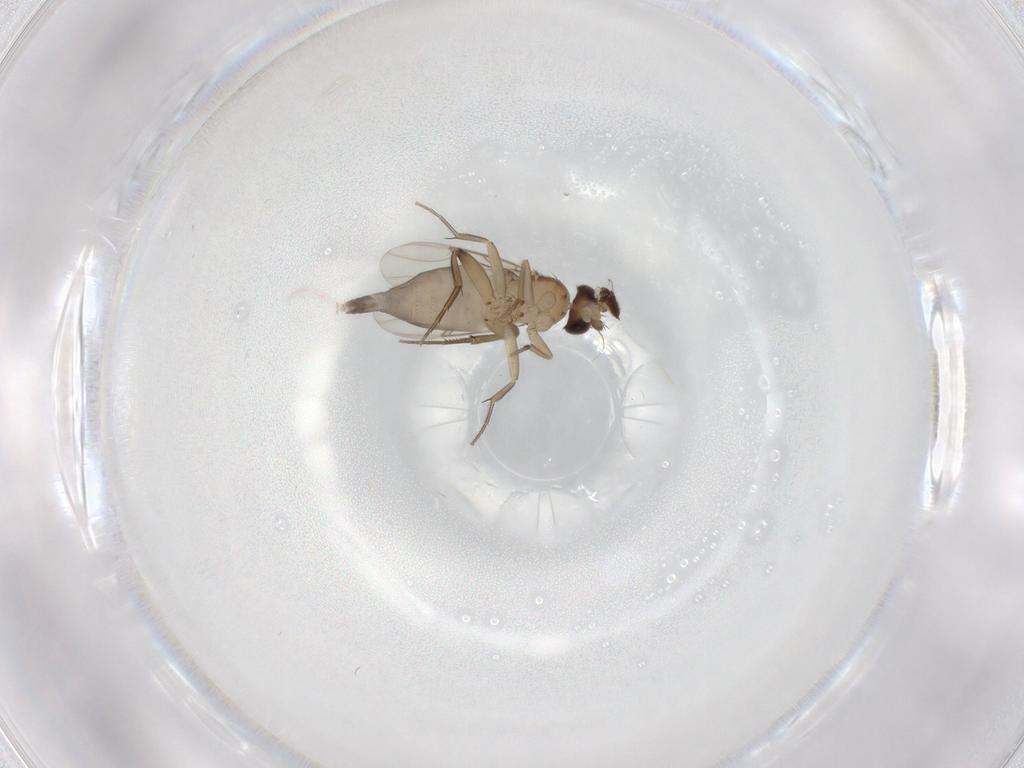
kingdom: Animalia
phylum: Arthropoda
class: Insecta
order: Diptera
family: Phoridae
